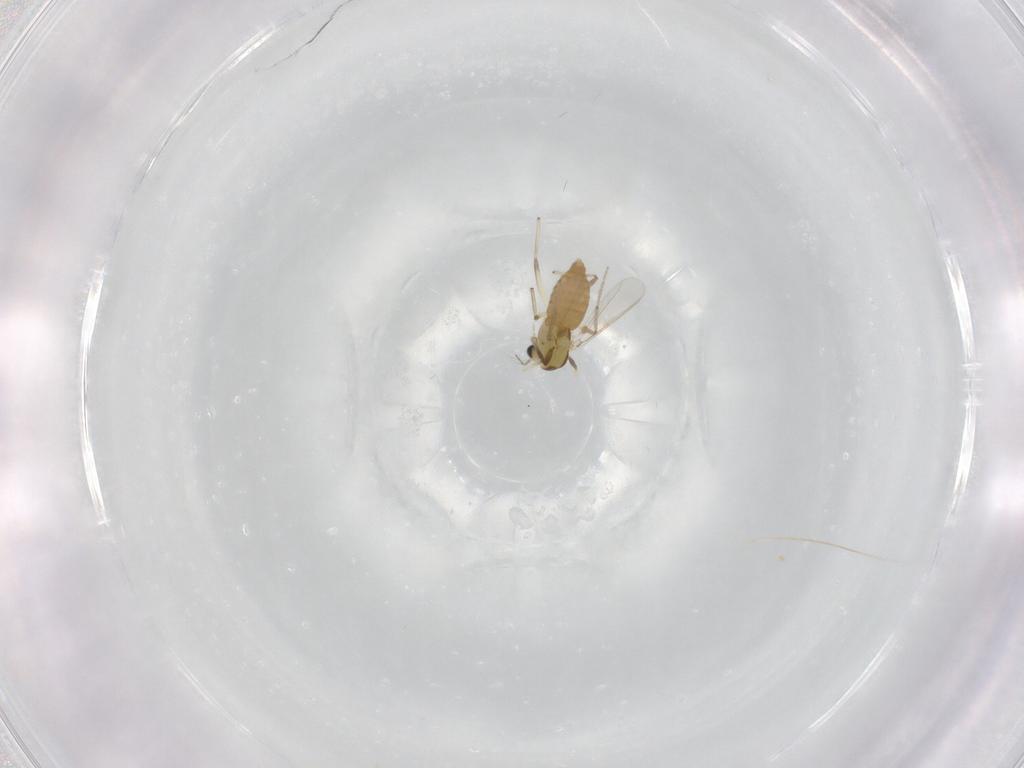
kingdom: Animalia
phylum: Arthropoda
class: Insecta
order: Diptera
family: Chironomidae
